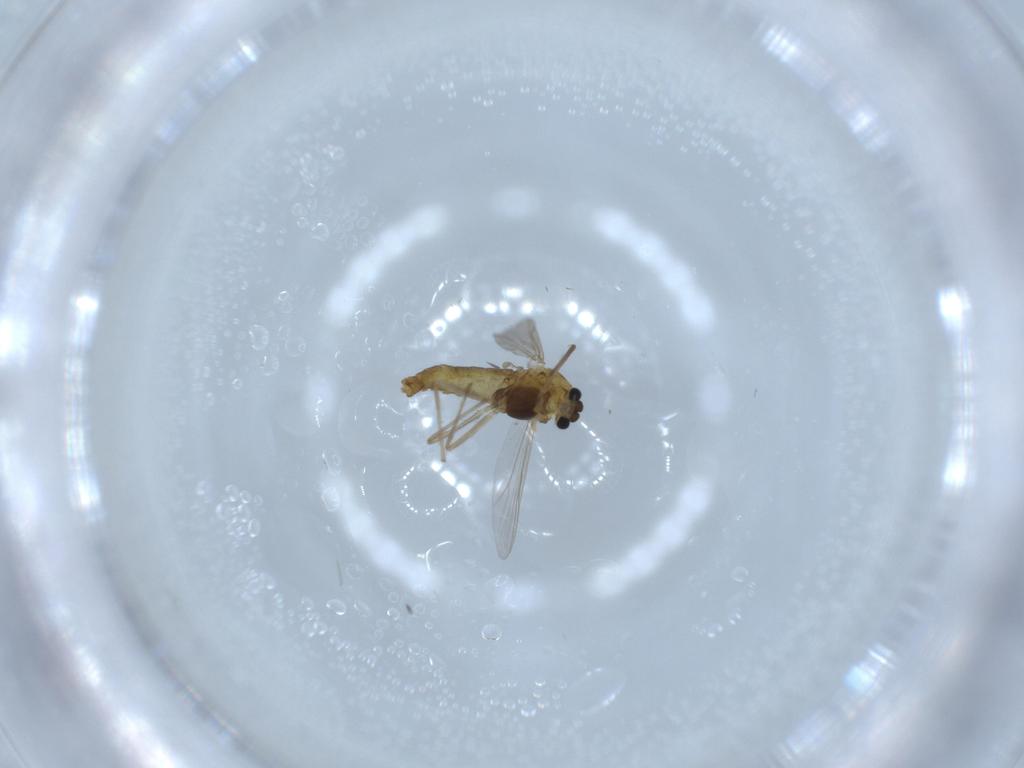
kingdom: Animalia
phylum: Arthropoda
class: Insecta
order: Diptera
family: Chironomidae
